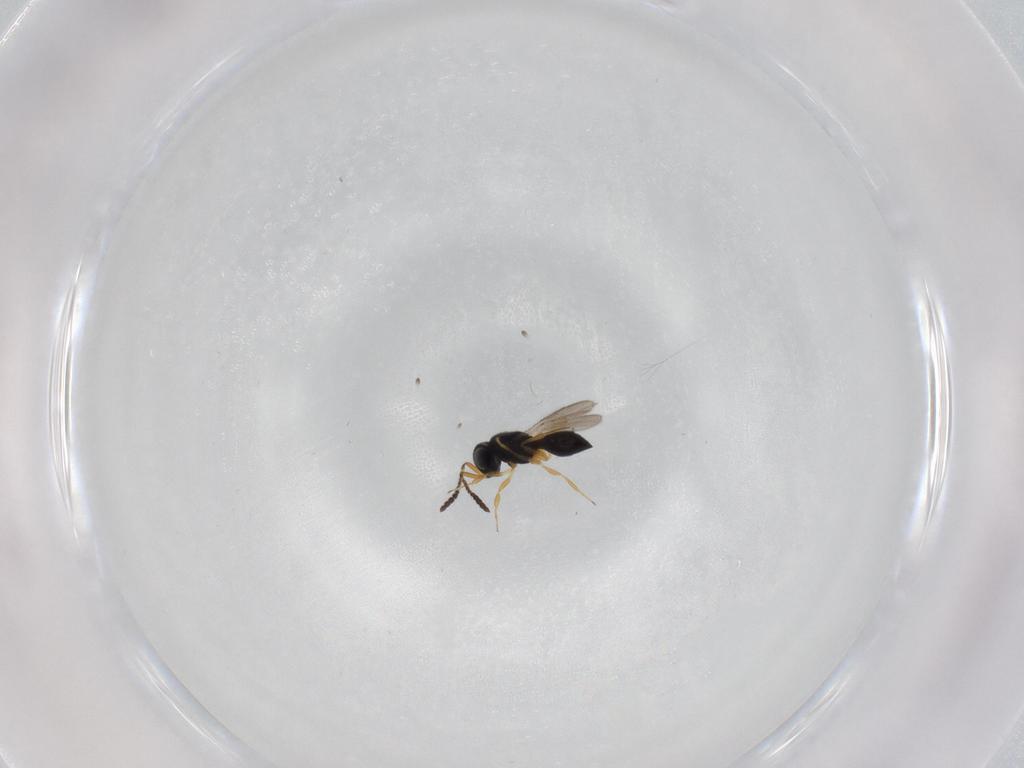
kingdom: Animalia
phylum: Arthropoda
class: Insecta
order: Hymenoptera
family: Scelionidae
